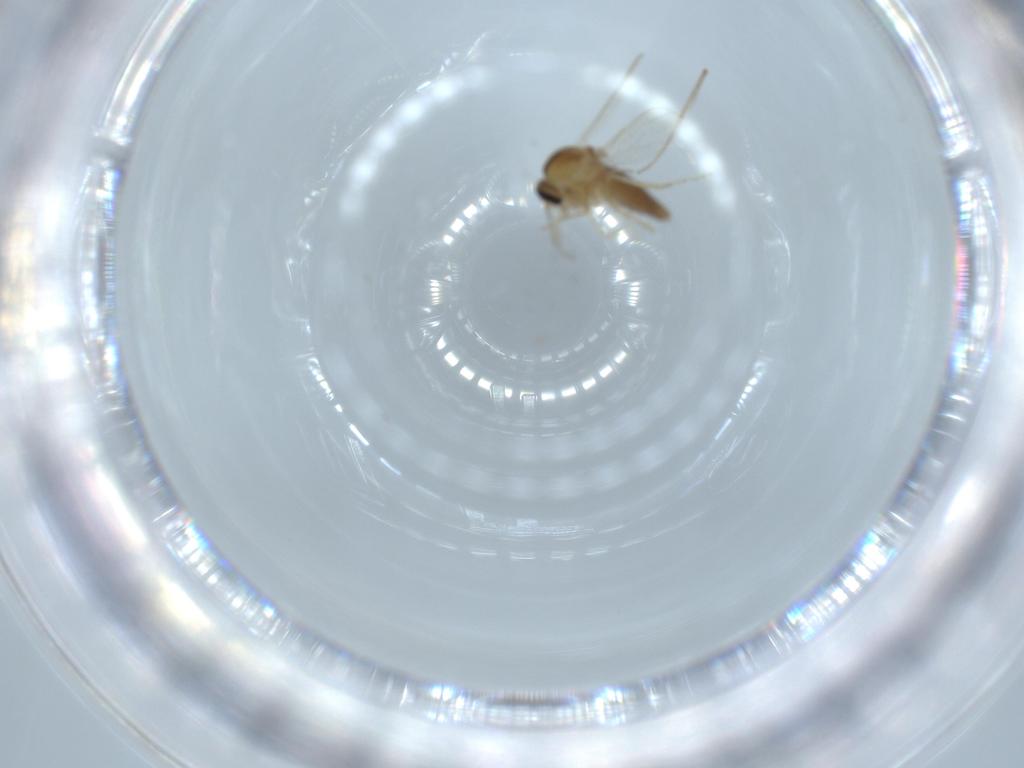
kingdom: Animalia
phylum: Arthropoda
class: Insecta
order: Diptera
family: Ceratopogonidae
